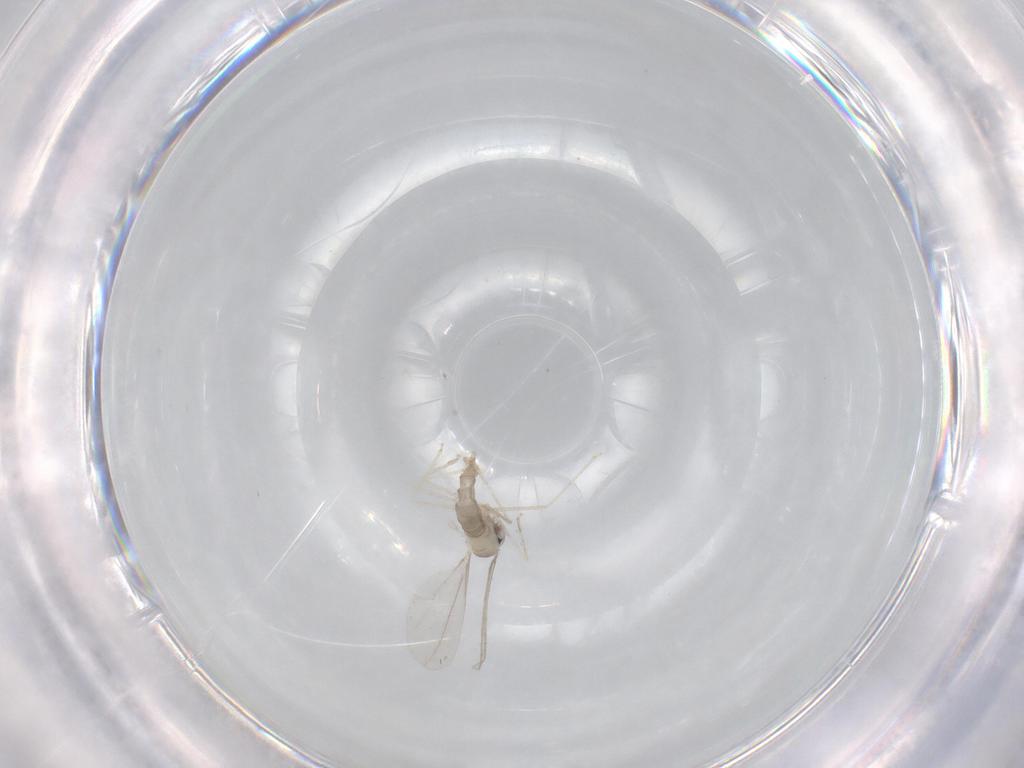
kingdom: Animalia
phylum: Arthropoda
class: Insecta
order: Diptera
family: Cecidomyiidae
